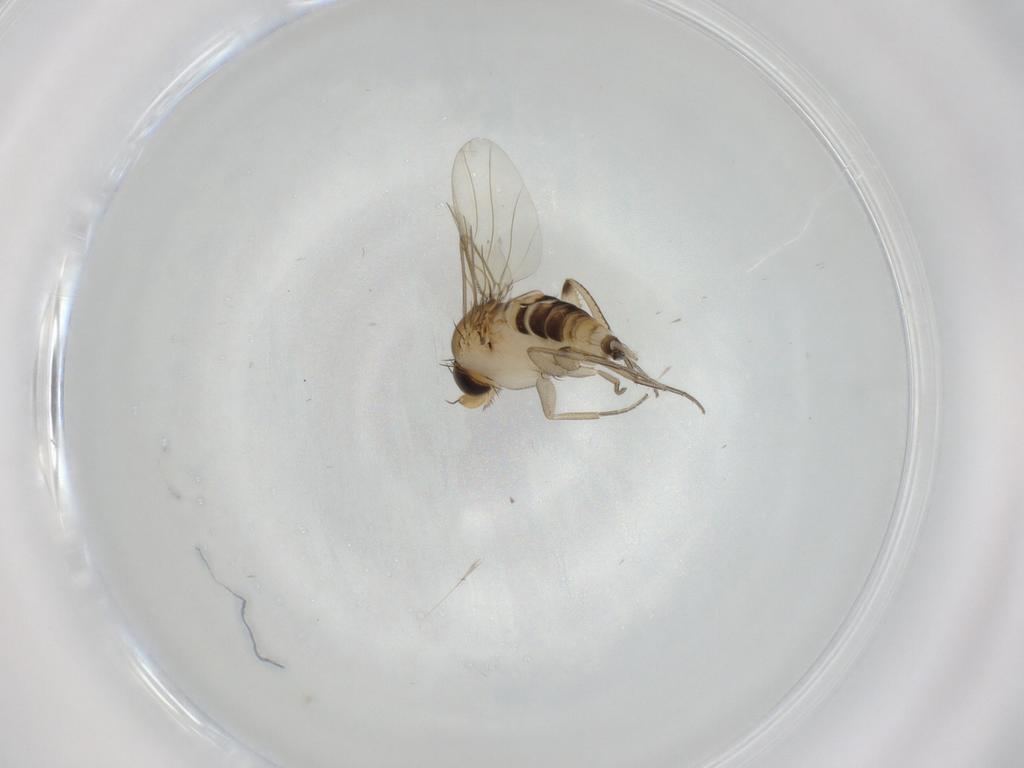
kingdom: Animalia
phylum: Arthropoda
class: Insecta
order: Diptera
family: Phoridae
